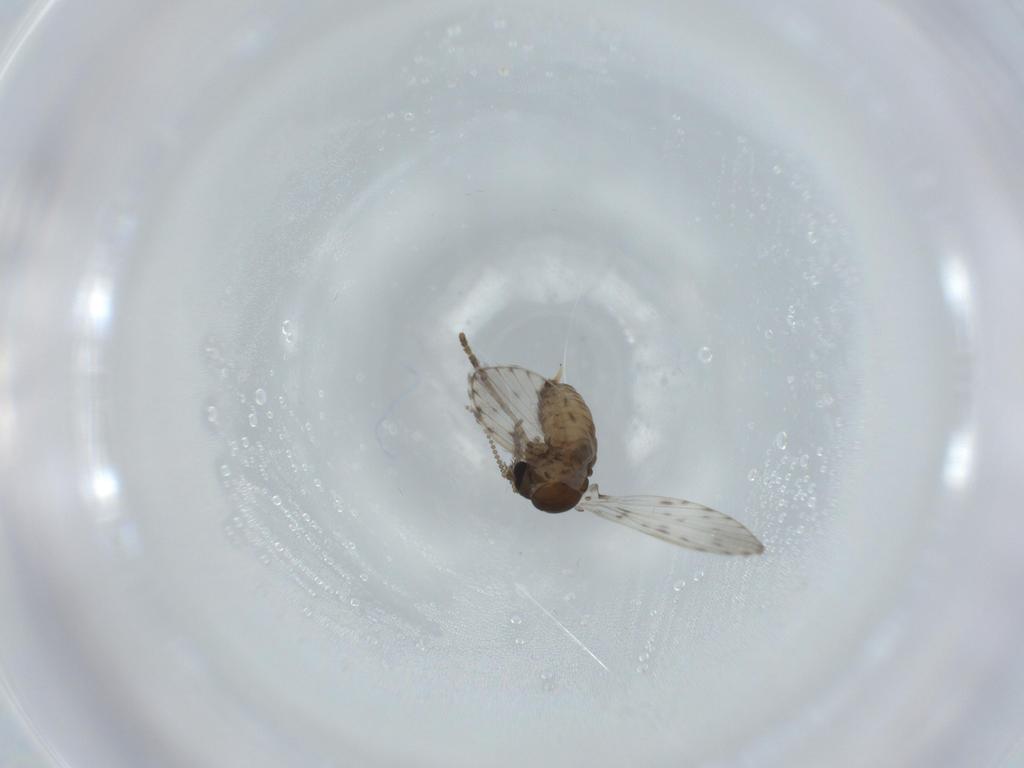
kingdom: Animalia
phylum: Arthropoda
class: Insecta
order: Diptera
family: Psychodidae
